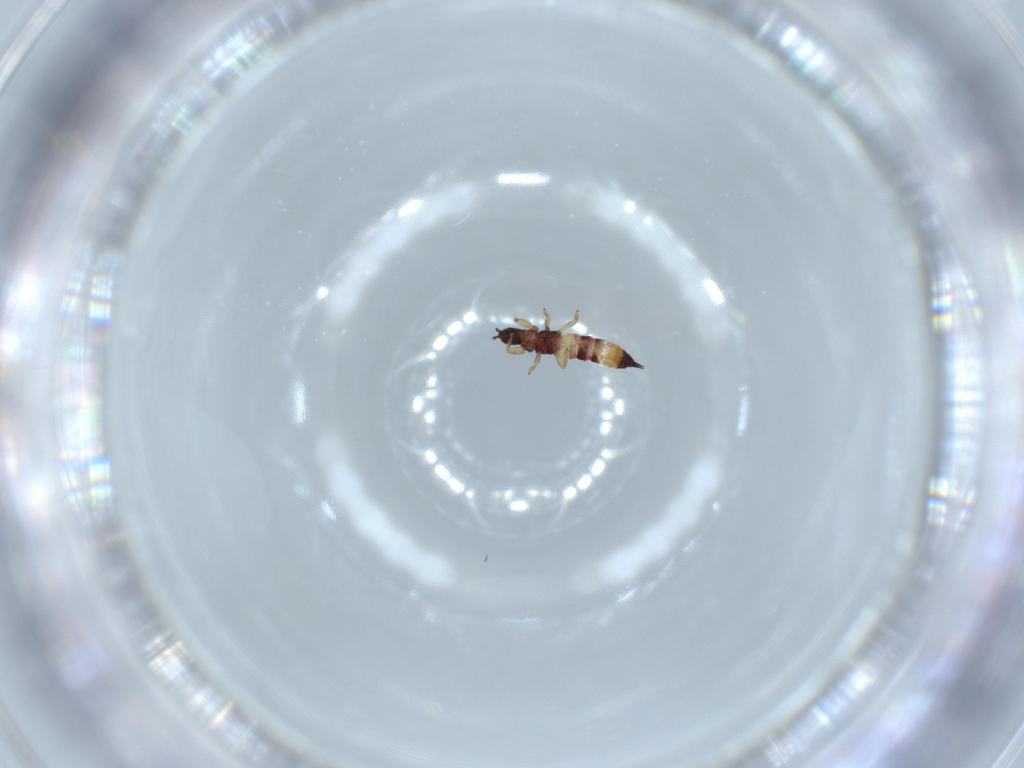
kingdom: Animalia
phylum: Arthropoda
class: Insecta
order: Thysanoptera
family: Phlaeothripidae
